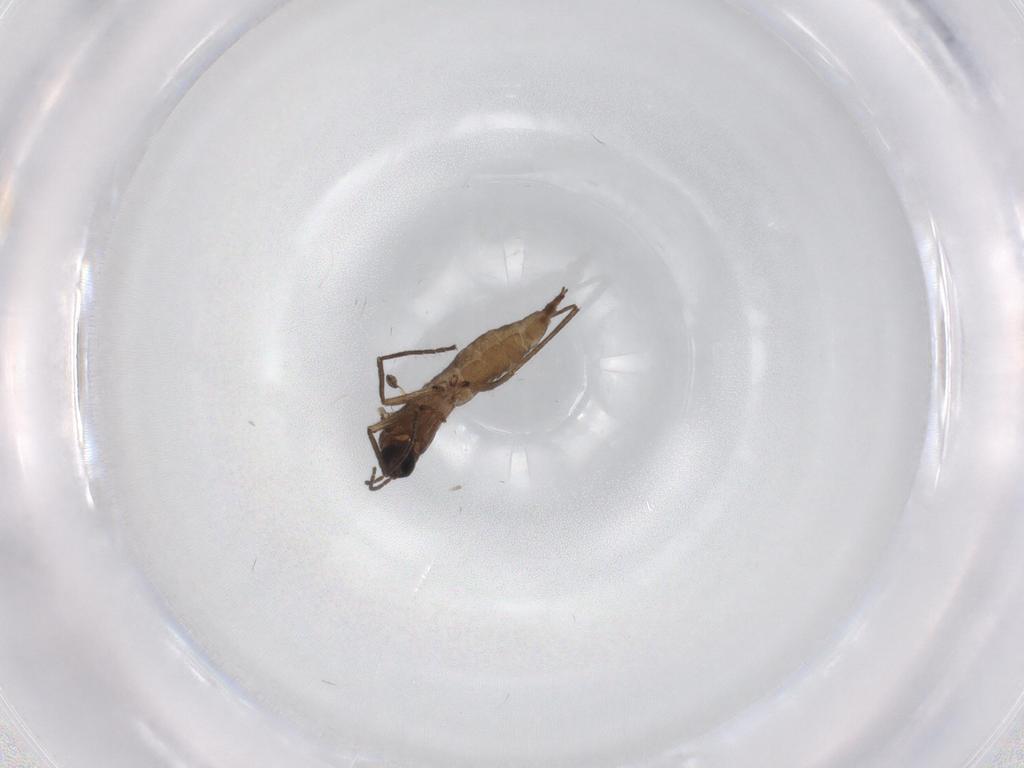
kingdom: Animalia
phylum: Arthropoda
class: Insecta
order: Diptera
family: Sciaridae
